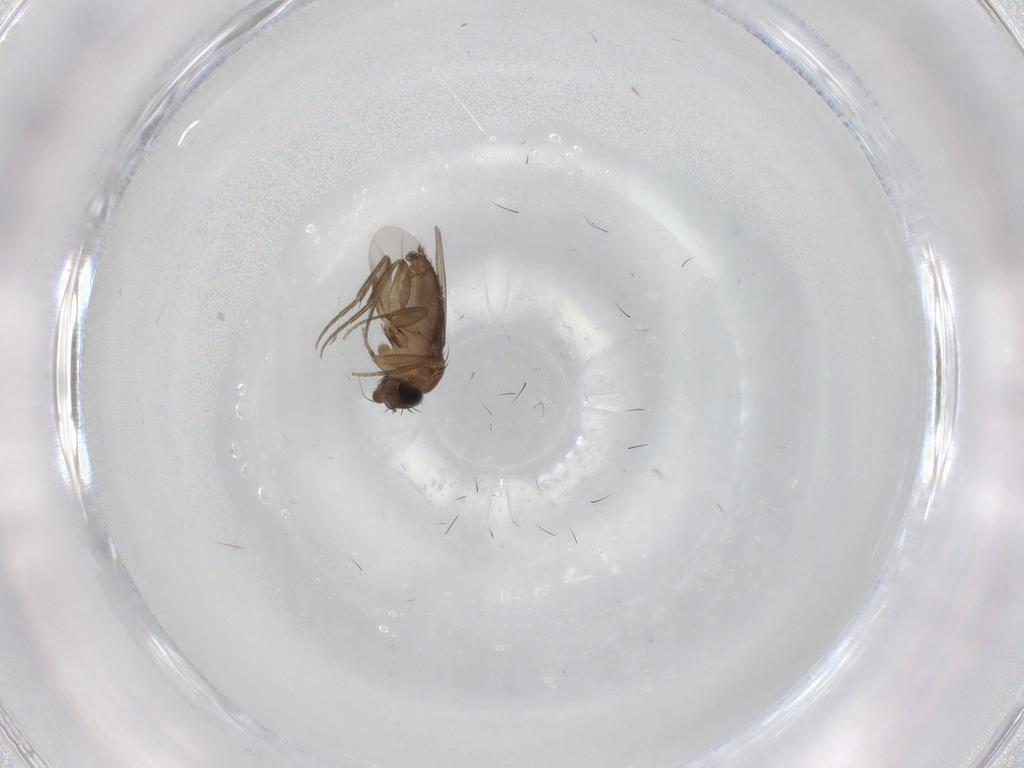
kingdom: Animalia
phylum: Arthropoda
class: Insecta
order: Diptera
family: Phoridae
